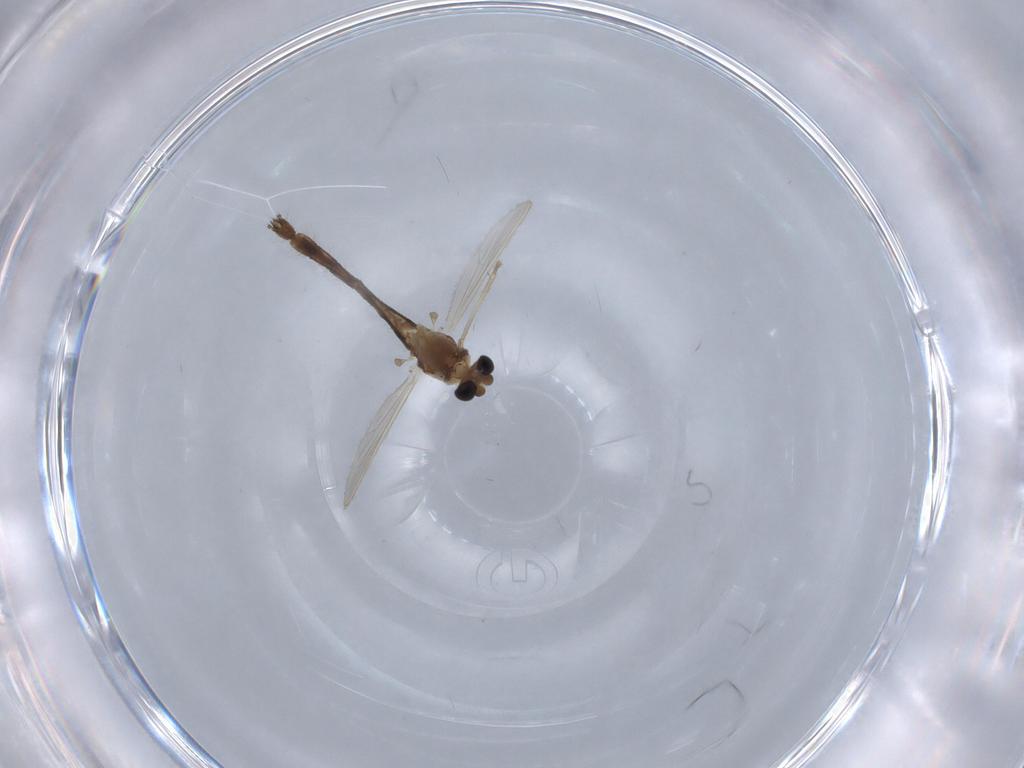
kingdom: Animalia
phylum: Arthropoda
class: Insecta
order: Diptera
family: Chironomidae
